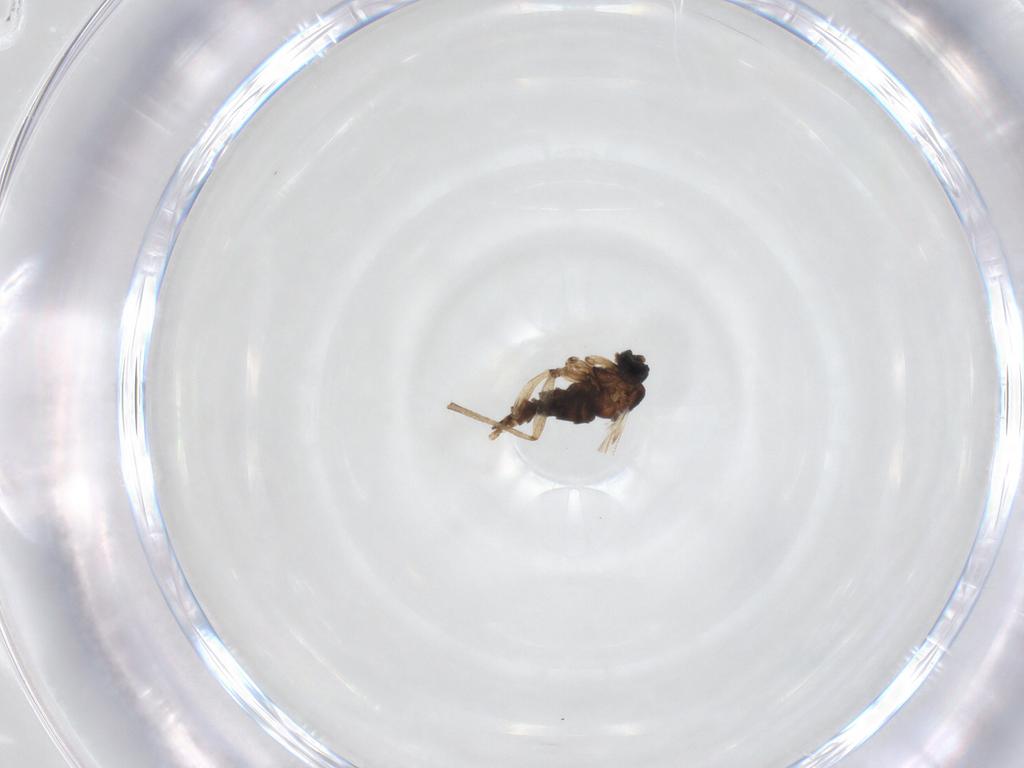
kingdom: Animalia
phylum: Arthropoda
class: Insecta
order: Diptera
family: Sciaridae
